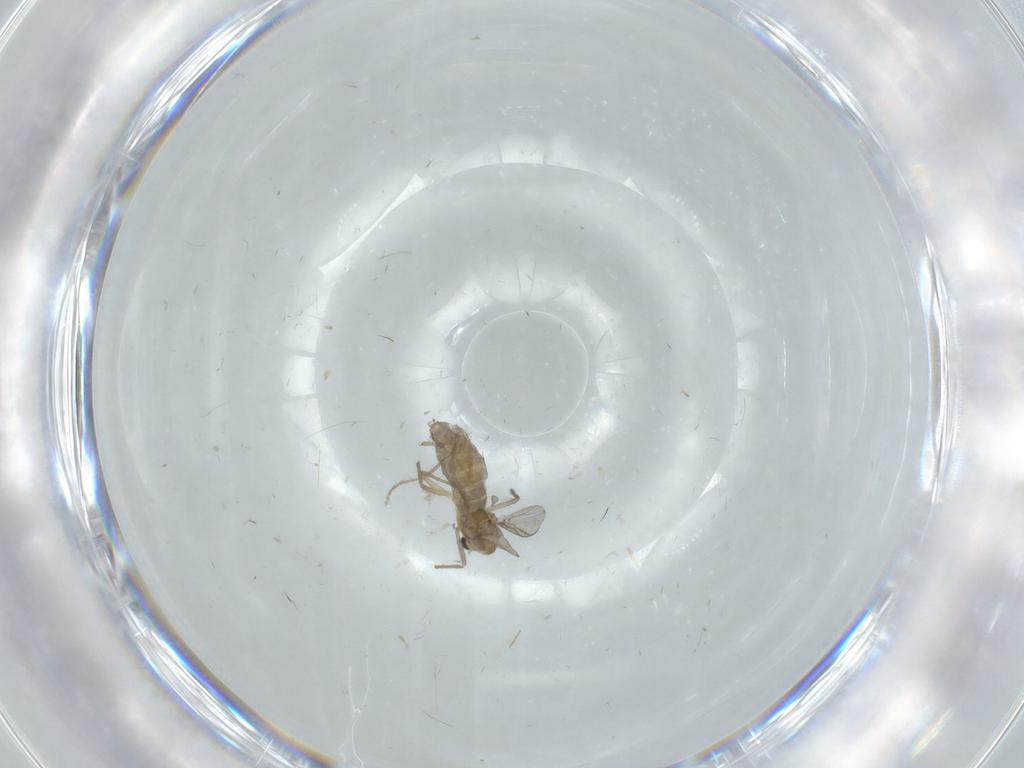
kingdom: Animalia
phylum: Arthropoda
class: Insecta
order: Diptera
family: Chironomidae
